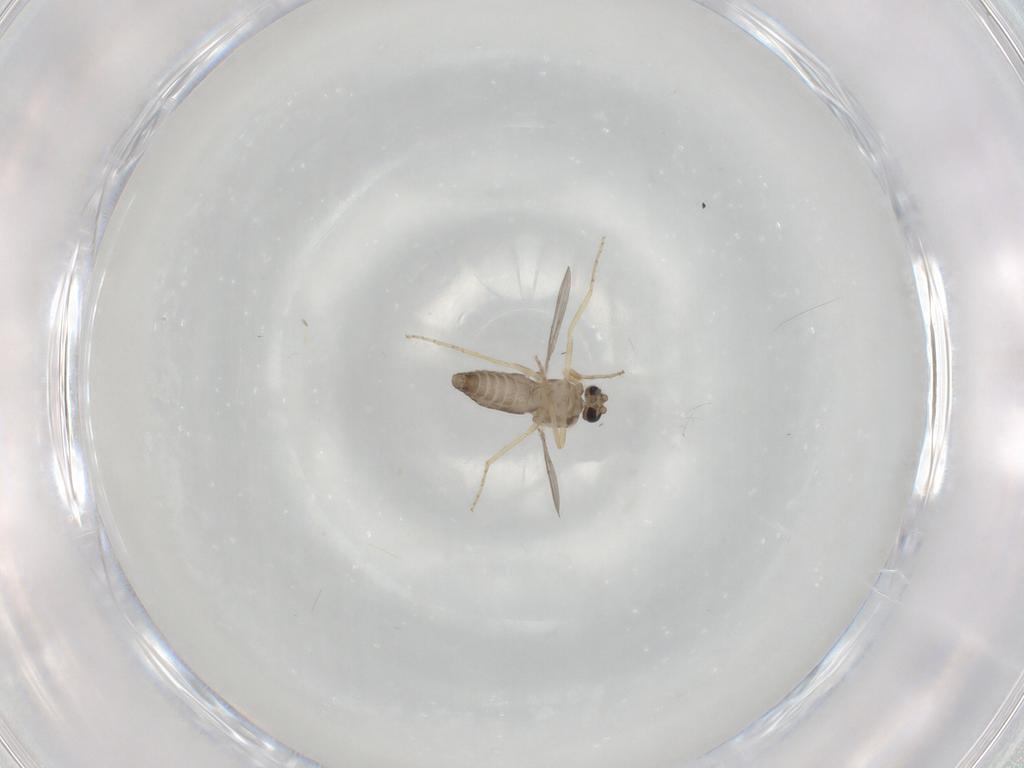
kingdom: Animalia
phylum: Arthropoda
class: Insecta
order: Diptera
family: Ceratopogonidae
